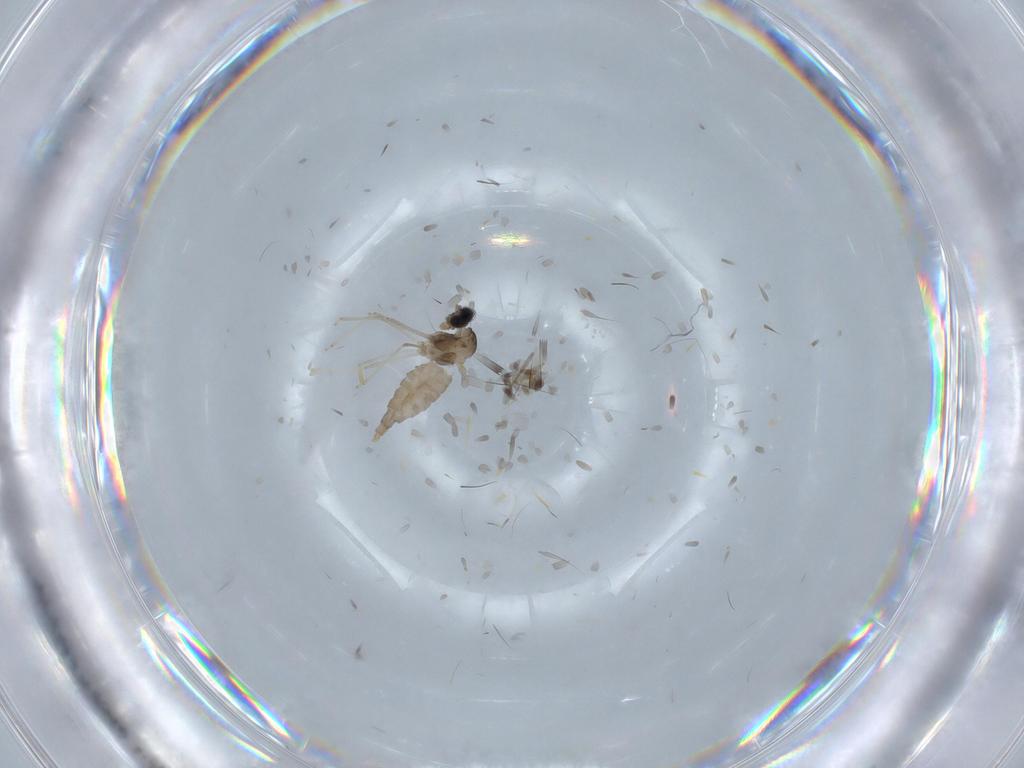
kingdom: Animalia
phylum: Arthropoda
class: Insecta
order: Diptera
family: Cecidomyiidae
